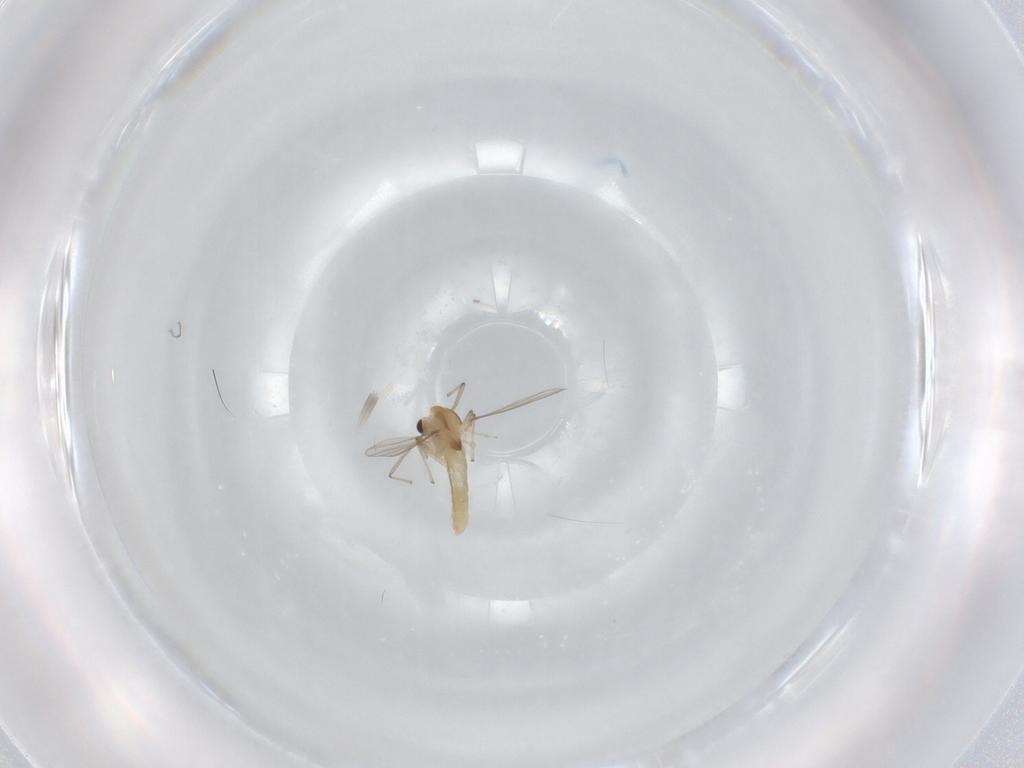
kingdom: Animalia
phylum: Arthropoda
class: Insecta
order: Diptera
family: Chironomidae
